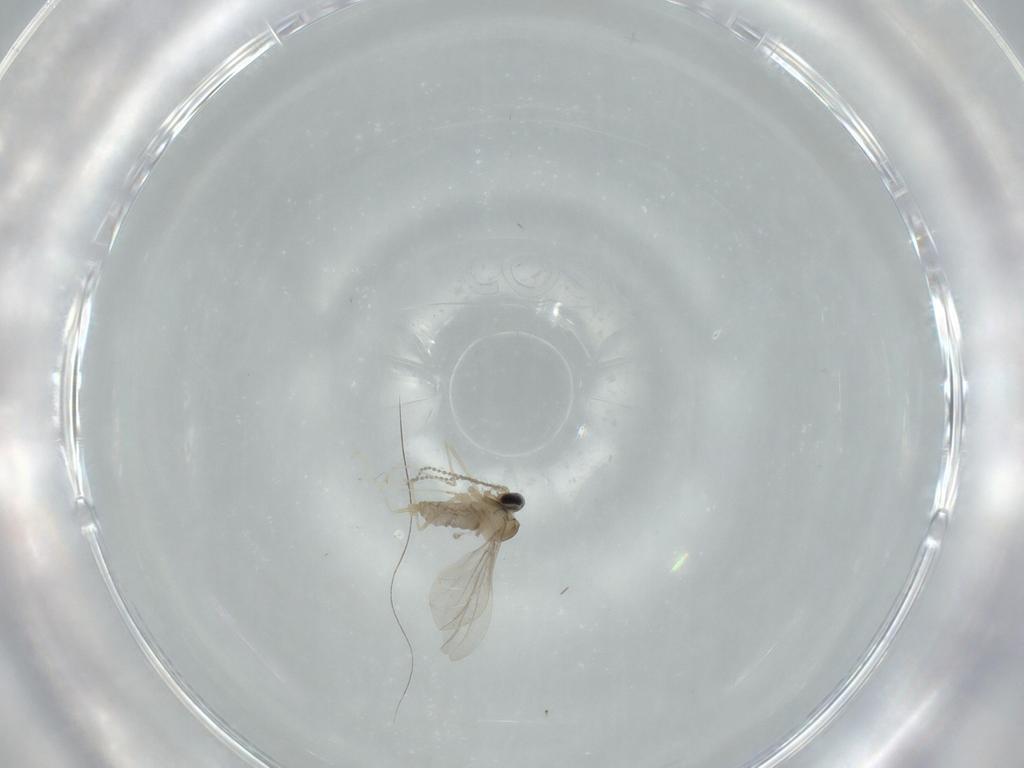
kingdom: Animalia
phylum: Arthropoda
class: Insecta
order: Diptera
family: Cecidomyiidae
